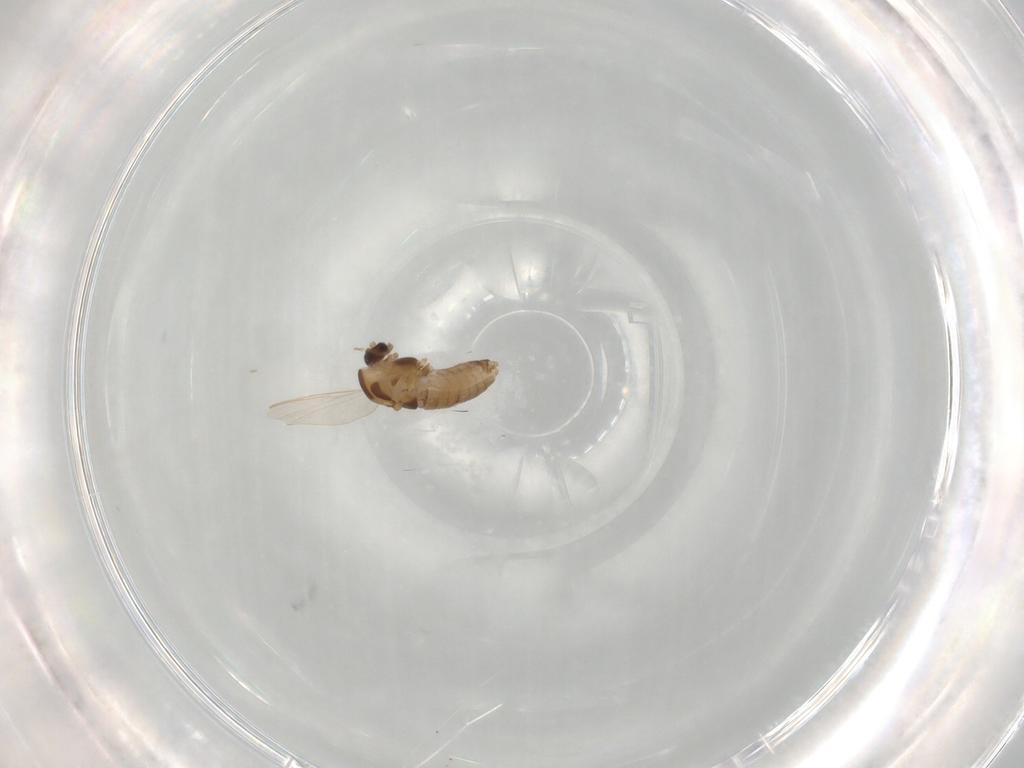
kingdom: Animalia
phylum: Arthropoda
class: Insecta
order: Diptera
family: Chironomidae
